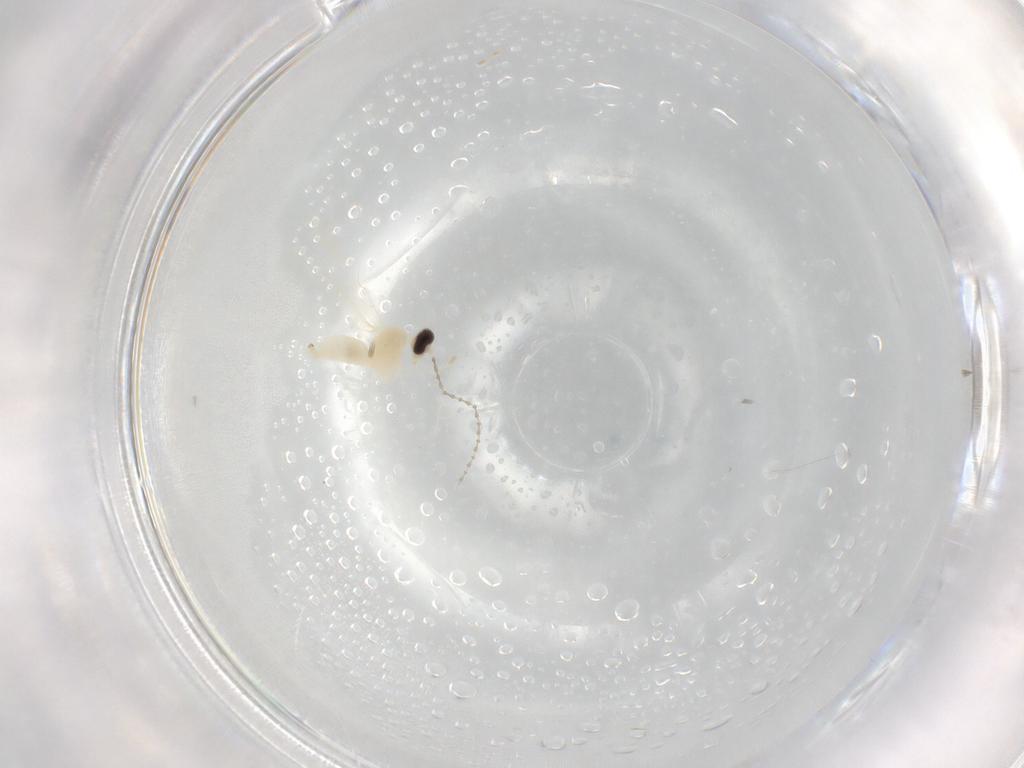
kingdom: Animalia
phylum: Arthropoda
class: Insecta
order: Diptera
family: Cecidomyiidae
